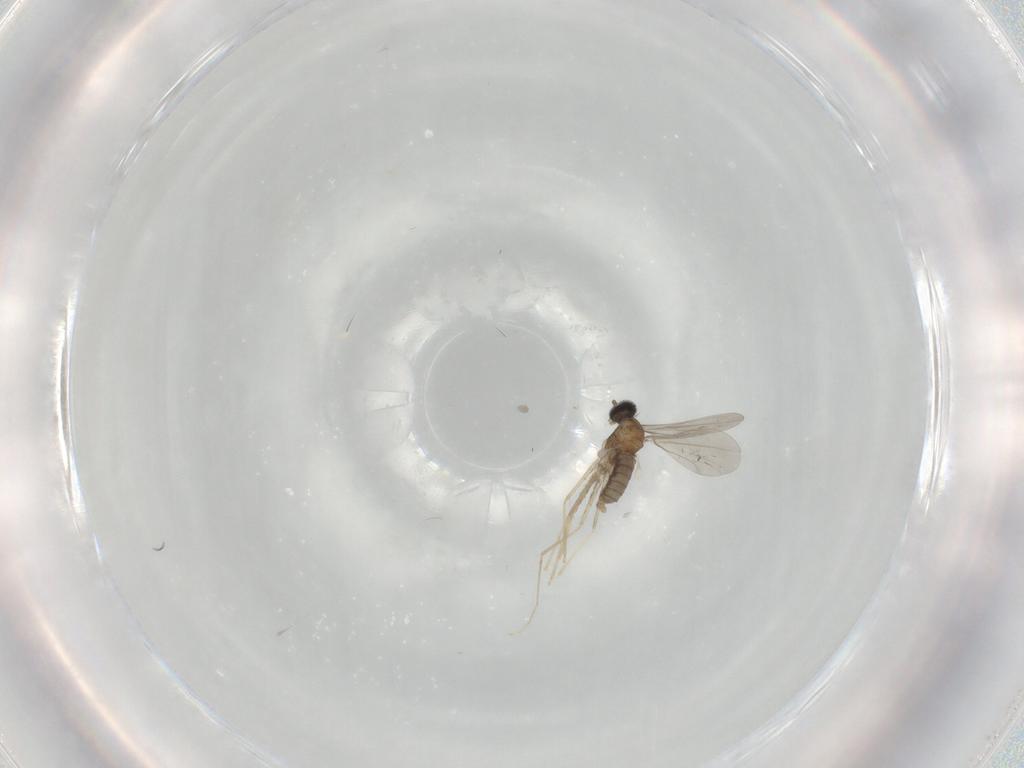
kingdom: Animalia
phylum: Arthropoda
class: Insecta
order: Diptera
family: Cecidomyiidae
